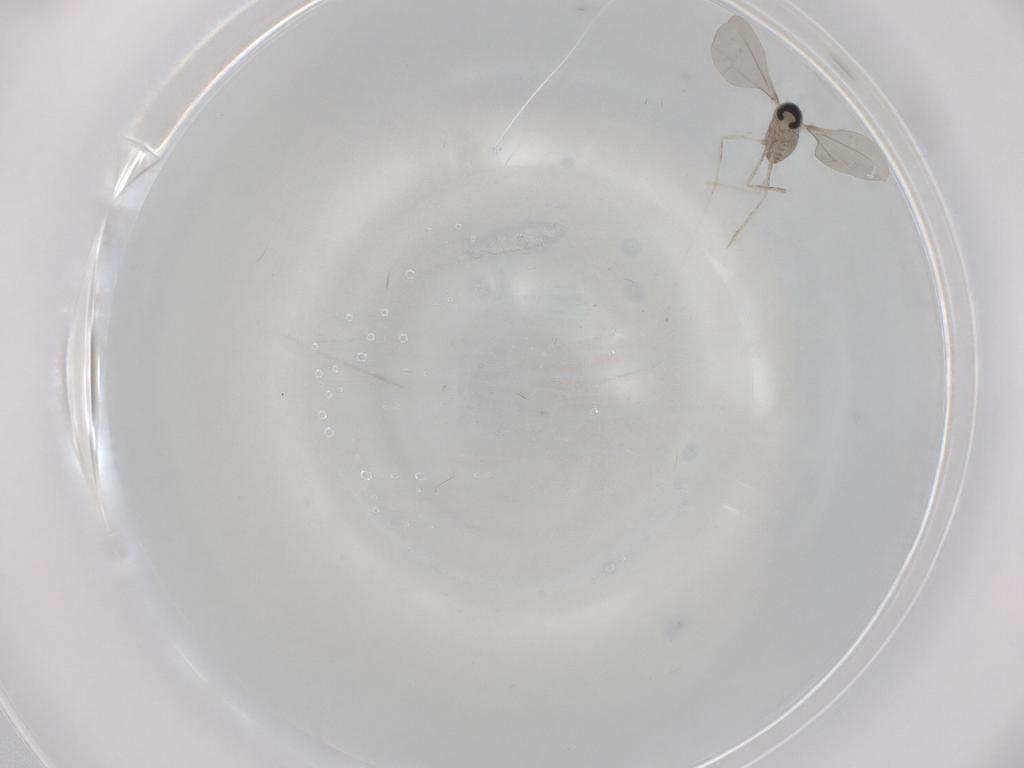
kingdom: Animalia
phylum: Arthropoda
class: Insecta
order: Diptera
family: Cecidomyiidae
